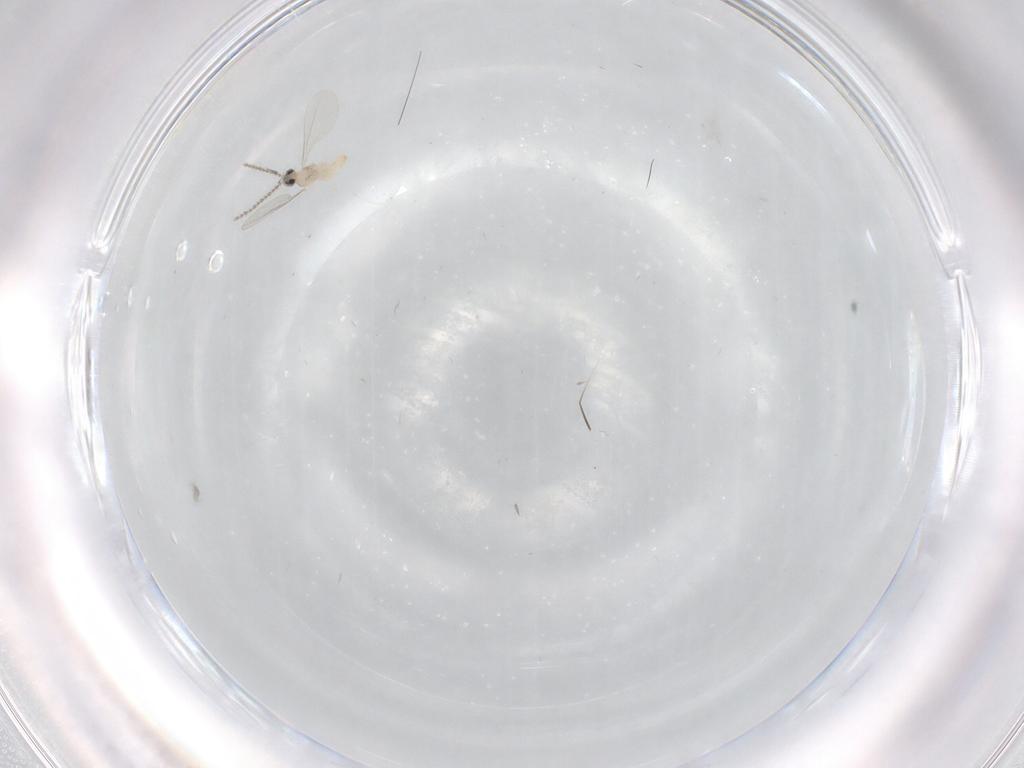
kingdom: Animalia
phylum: Arthropoda
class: Insecta
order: Diptera
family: Cecidomyiidae
